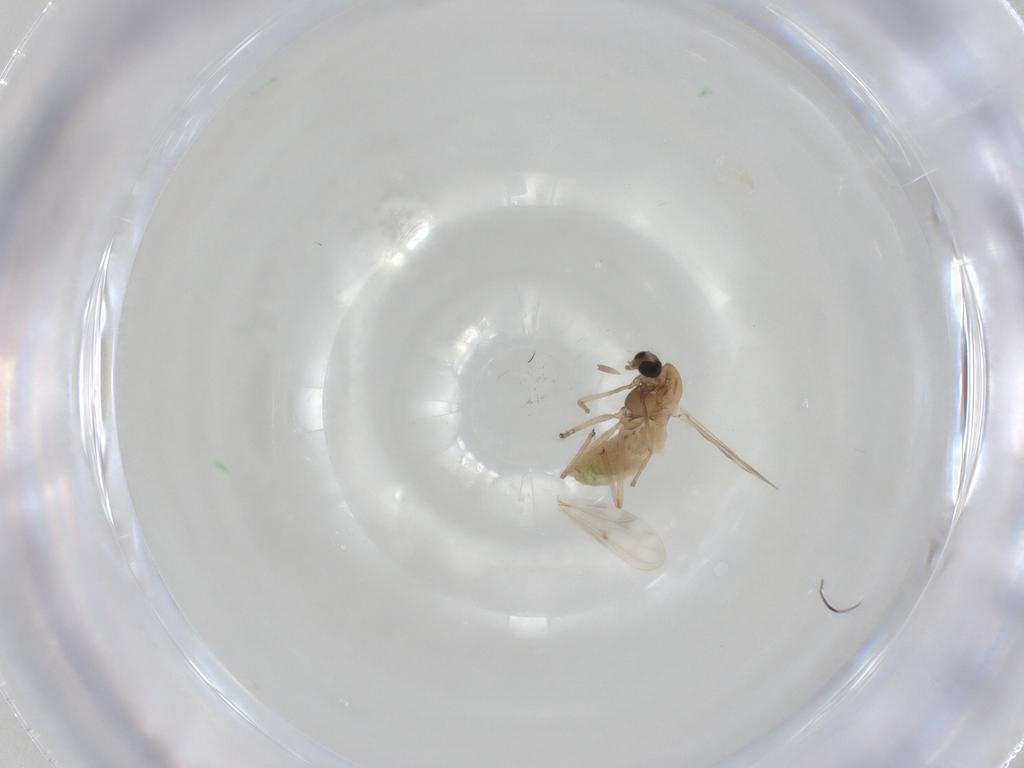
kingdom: Animalia
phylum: Arthropoda
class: Insecta
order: Diptera
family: Chironomidae
